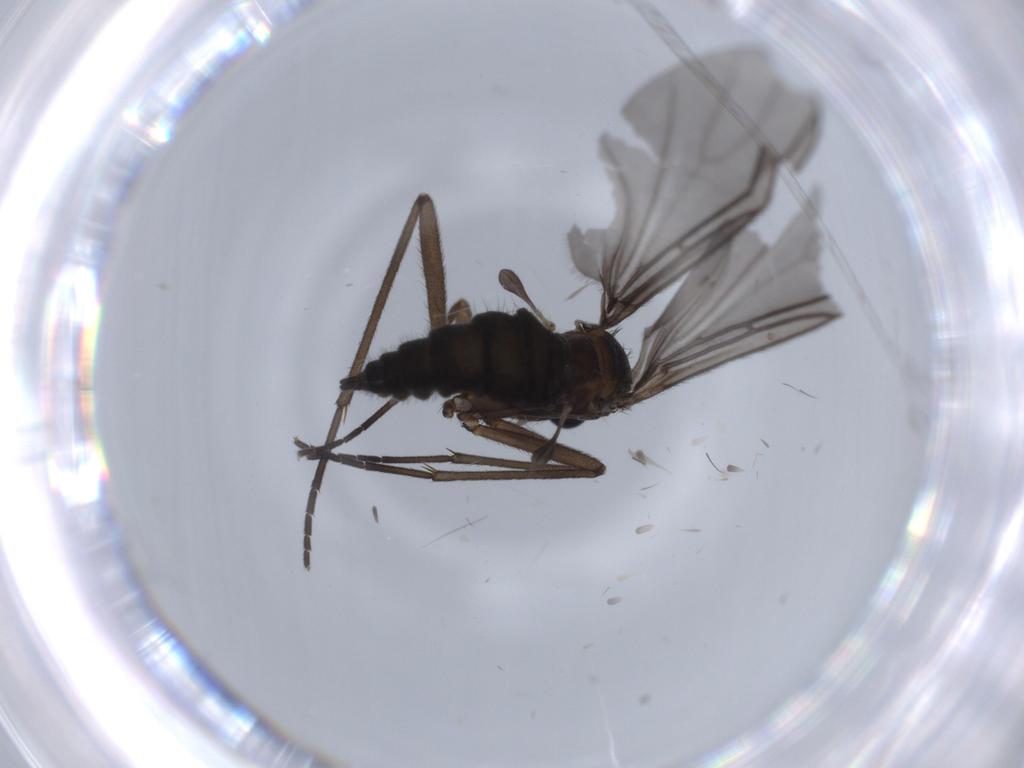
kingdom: Animalia
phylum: Arthropoda
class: Insecta
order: Diptera
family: Sciaridae
